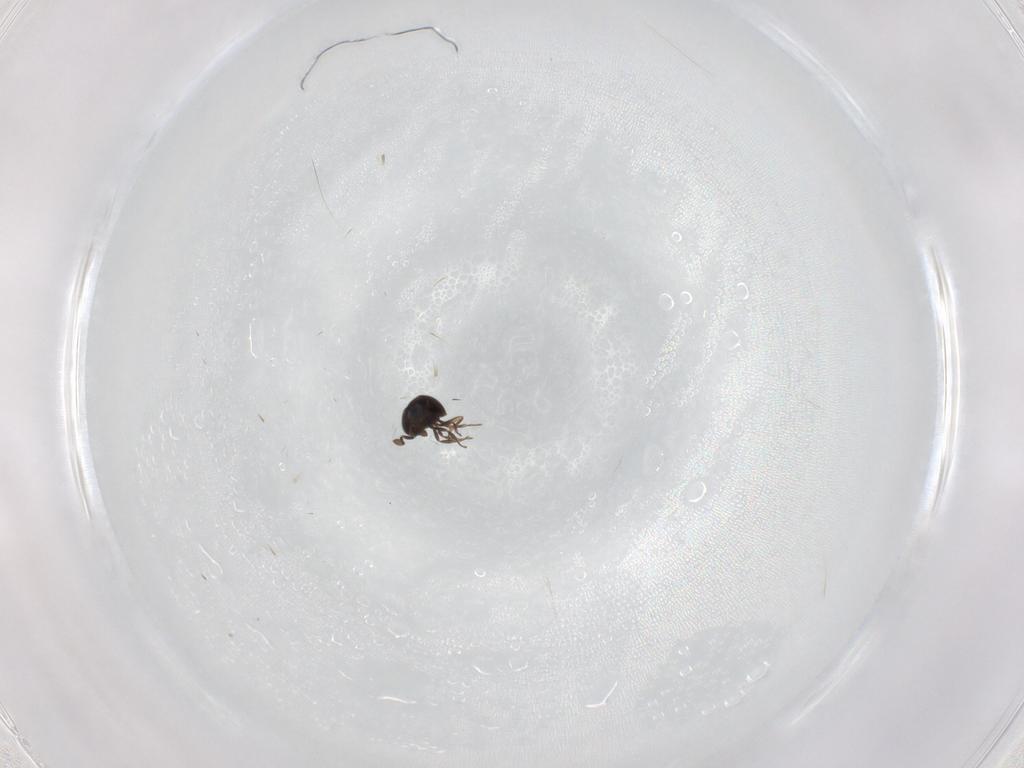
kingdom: Animalia
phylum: Arthropoda
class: Insecta
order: Hymenoptera
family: Scelionidae
